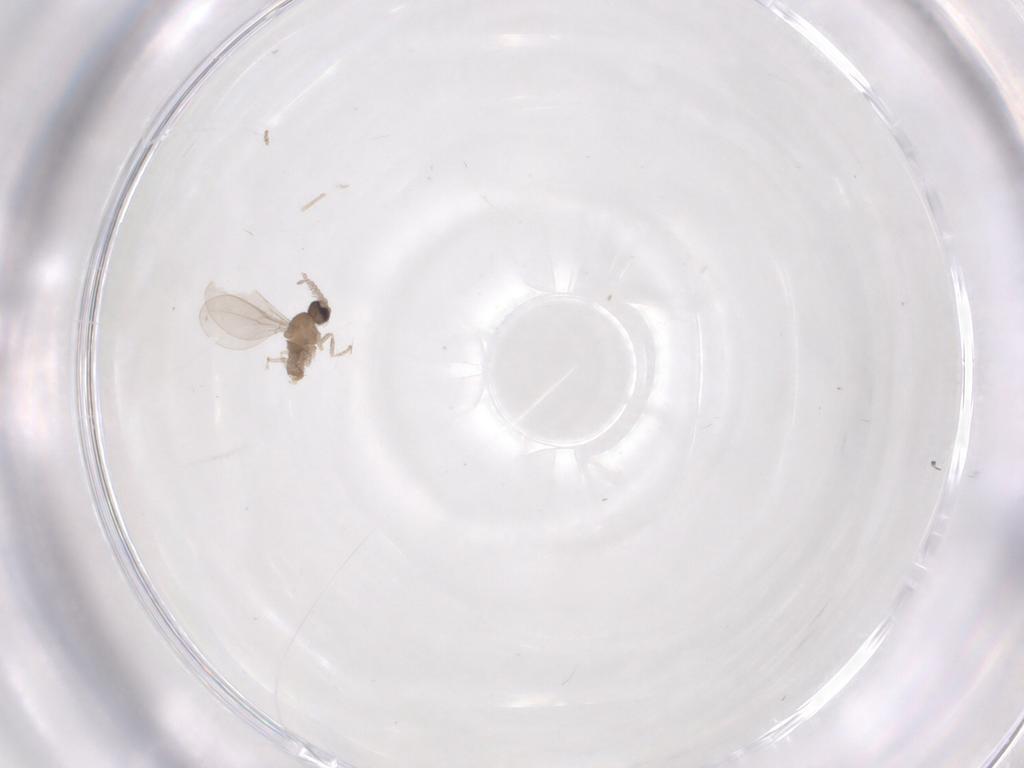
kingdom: Animalia
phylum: Arthropoda
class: Insecta
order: Diptera
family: Cecidomyiidae
